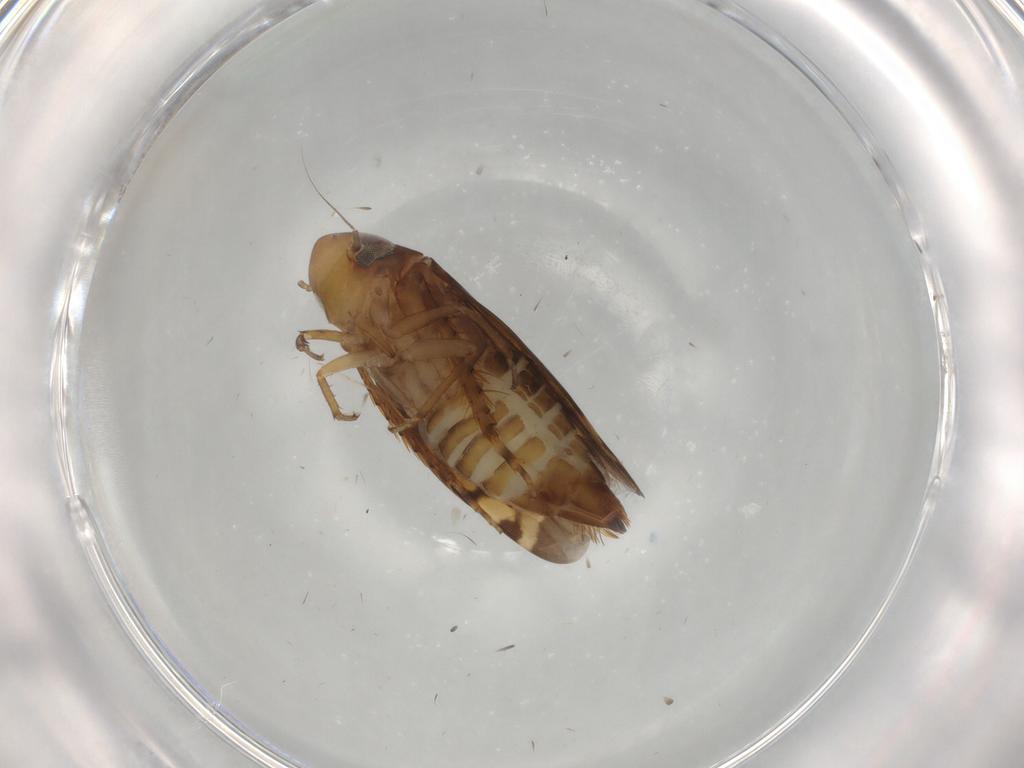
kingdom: Animalia
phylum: Arthropoda
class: Insecta
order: Hemiptera
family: Cicadellidae
